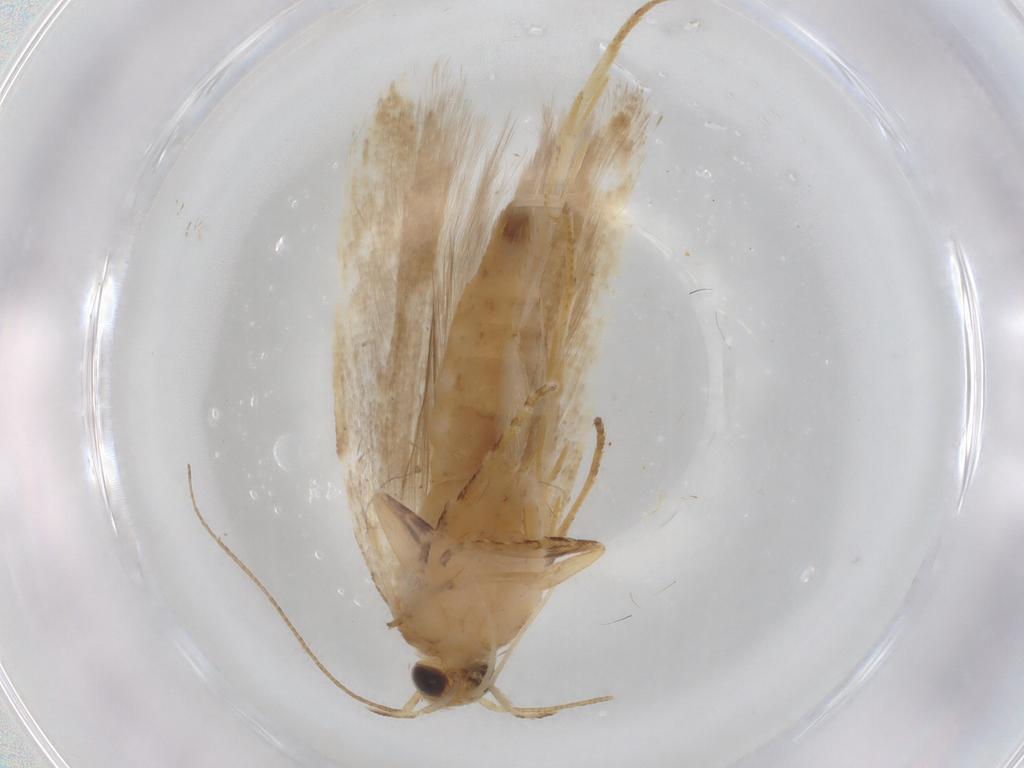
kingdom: Animalia
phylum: Arthropoda
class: Insecta
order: Lepidoptera
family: Gelechiidae
